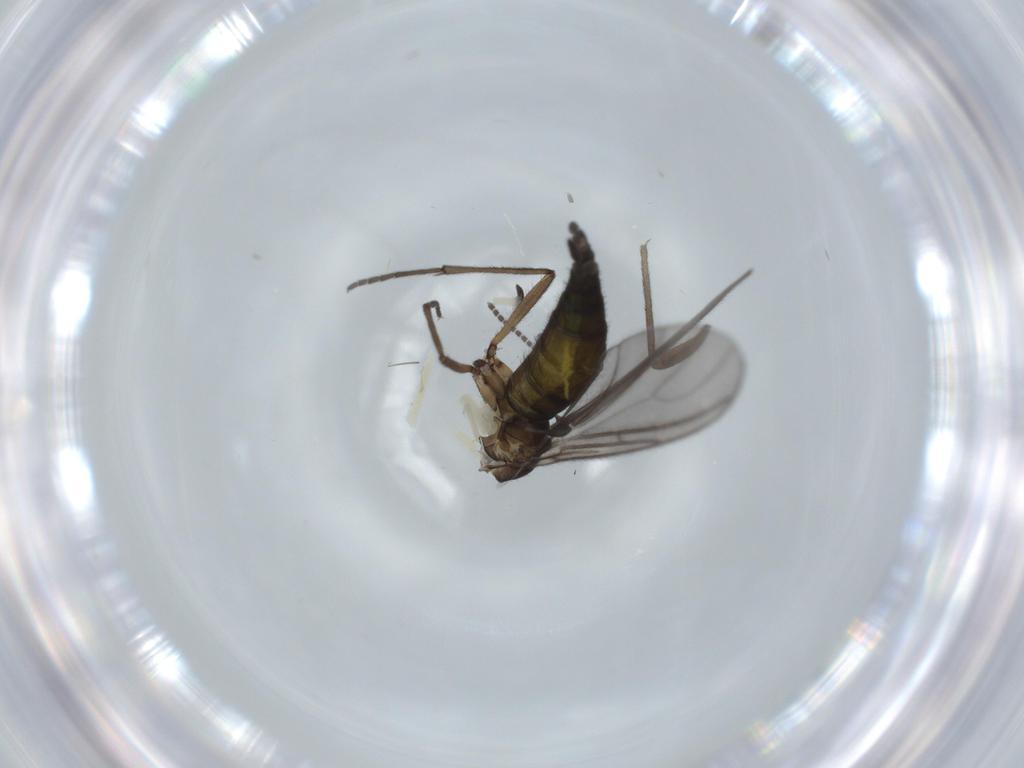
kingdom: Animalia
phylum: Arthropoda
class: Insecta
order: Diptera
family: Sciaridae
